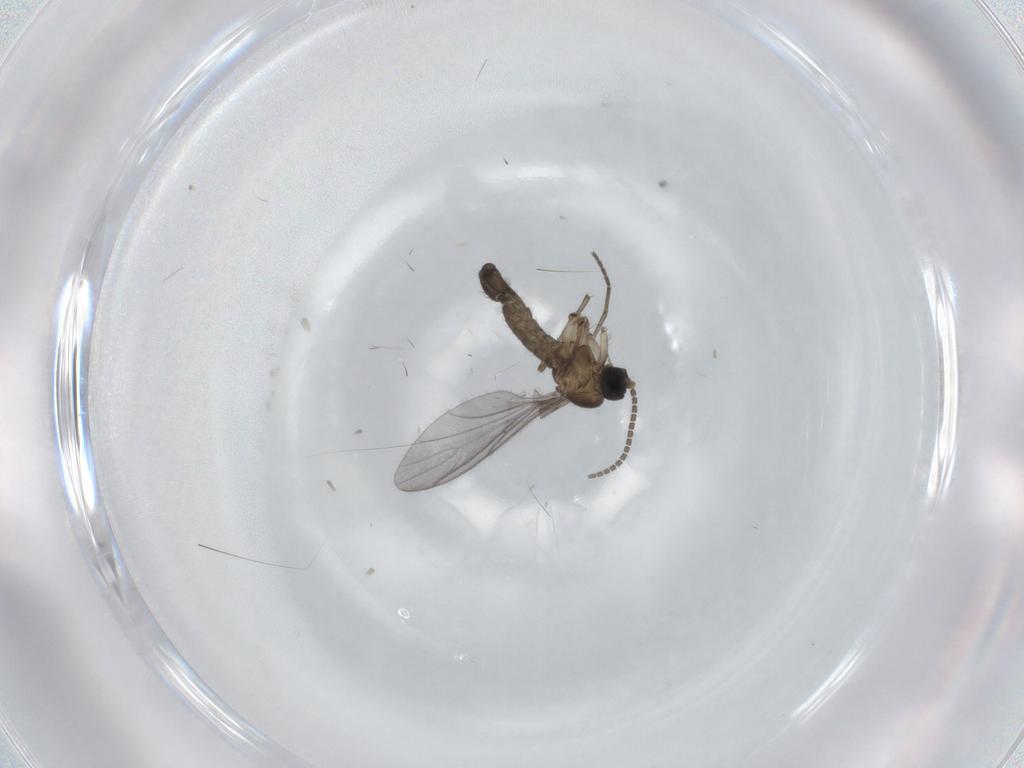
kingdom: Animalia
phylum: Arthropoda
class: Insecta
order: Diptera
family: Sciaridae
